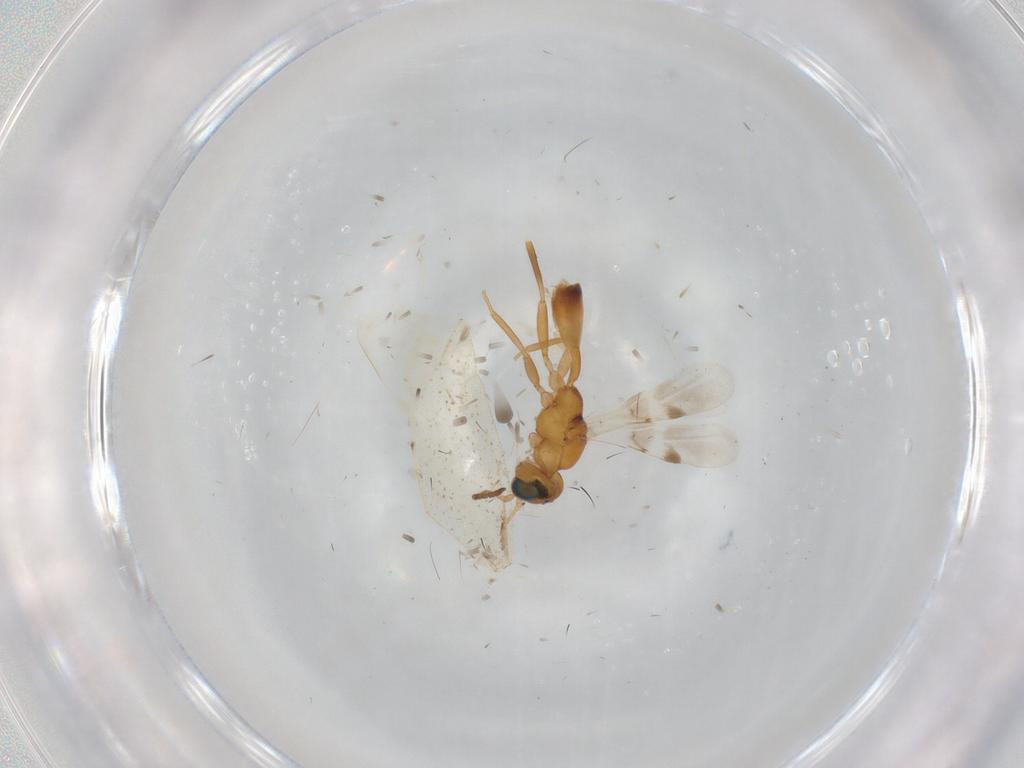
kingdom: Animalia
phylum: Arthropoda
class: Insecta
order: Hymenoptera
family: Braconidae
